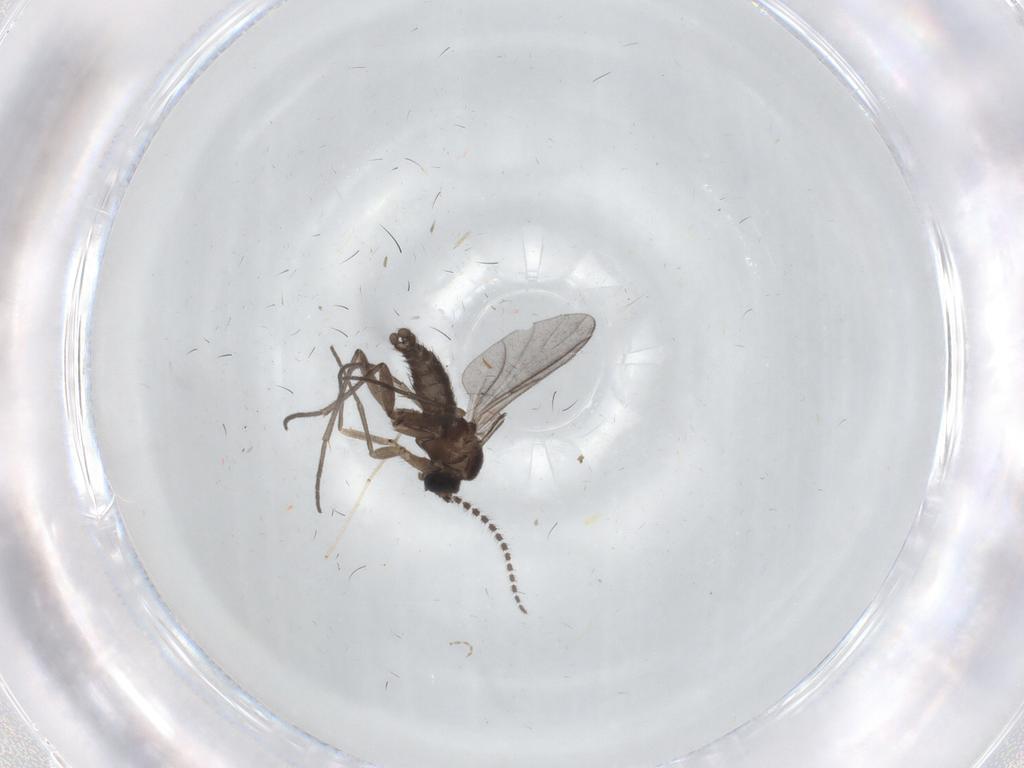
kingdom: Animalia
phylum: Arthropoda
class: Insecta
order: Diptera
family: Sciaridae
